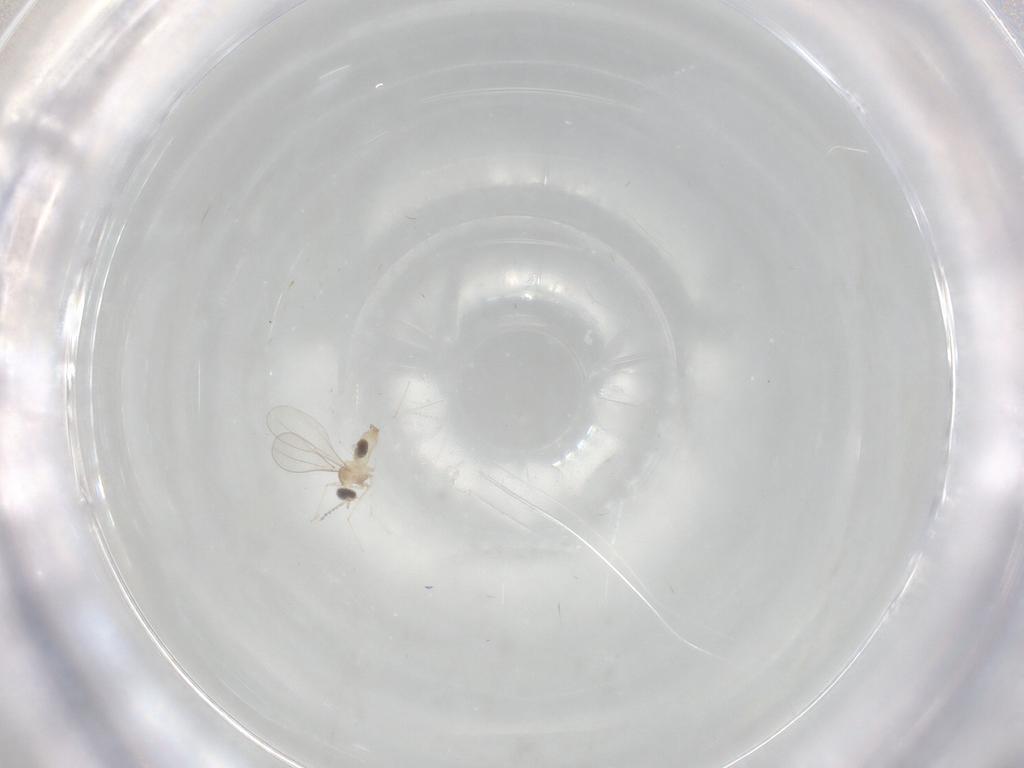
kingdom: Animalia
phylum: Arthropoda
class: Insecta
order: Diptera
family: Cecidomyiidae
